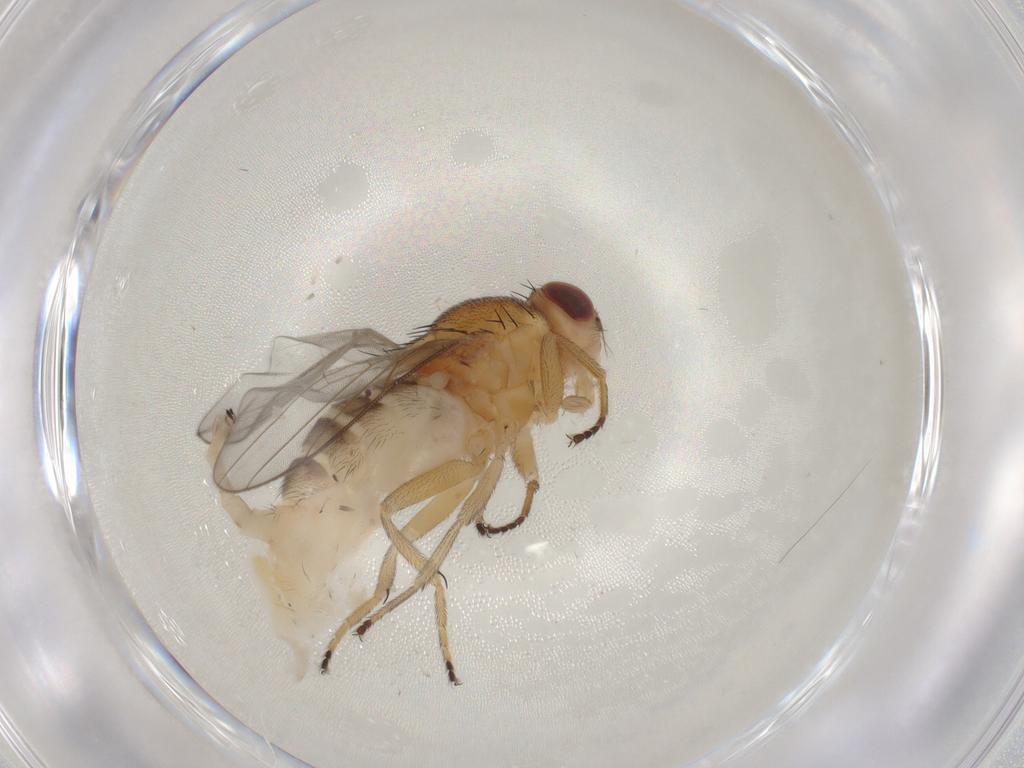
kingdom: Animalia
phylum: Arthropoda
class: Insecta
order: Diptera
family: Chloropidae
